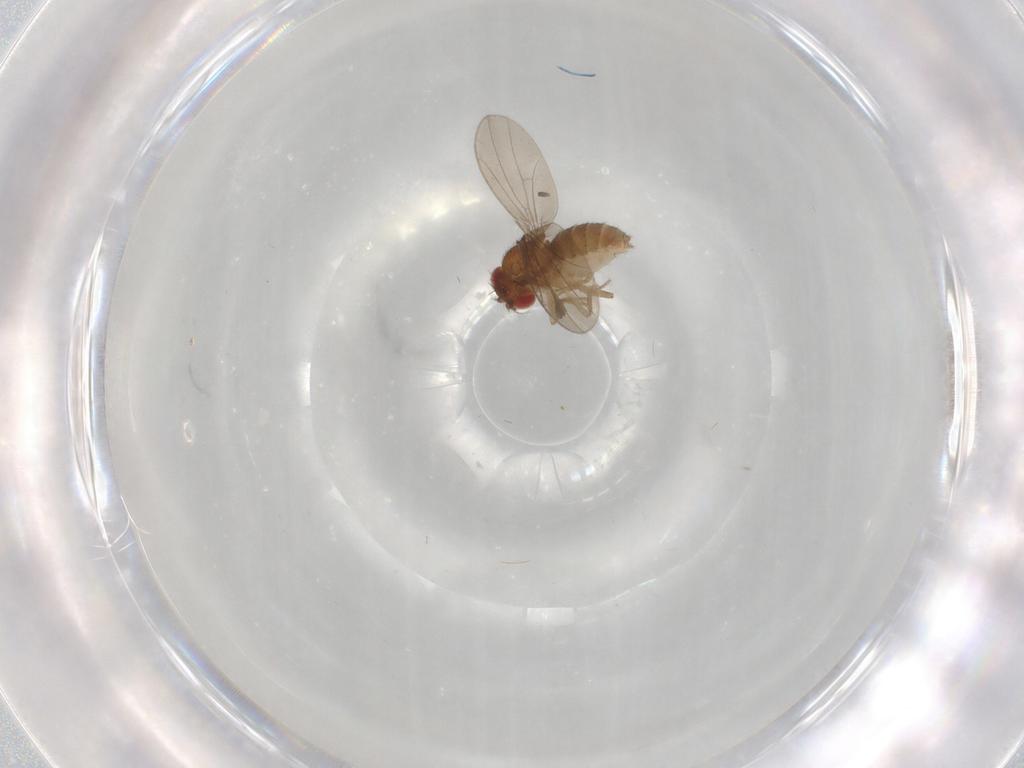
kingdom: Animalia
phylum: Arthropoda
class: Insecta
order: Diptera
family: Drosophilidae
